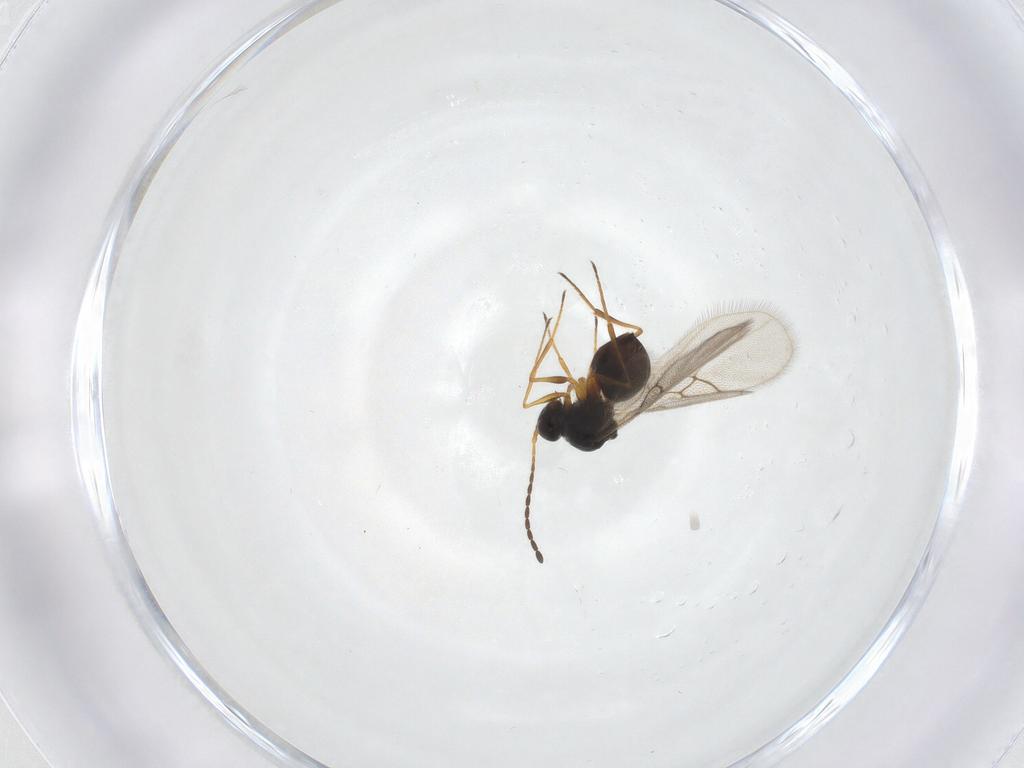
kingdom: Animalia
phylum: Arthropoda
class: Insecta
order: Hymenoptera
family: Figitidae
